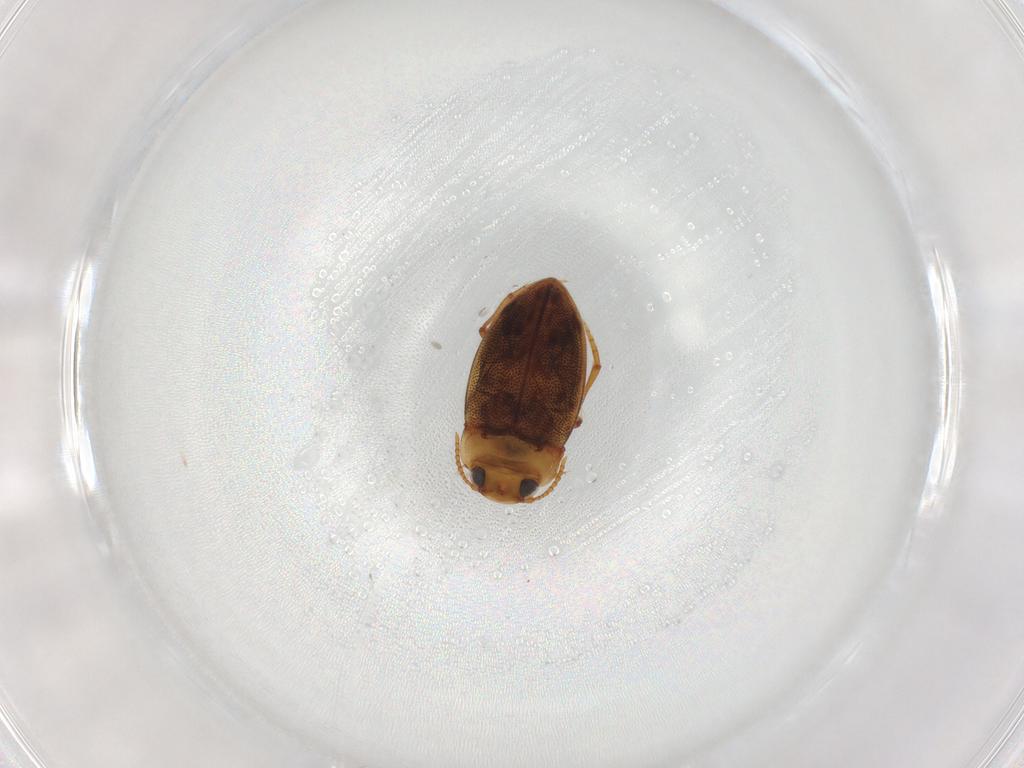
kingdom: Animalia
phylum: Arthropoda
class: Insecta
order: Coleoptera
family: Dytiscidae
